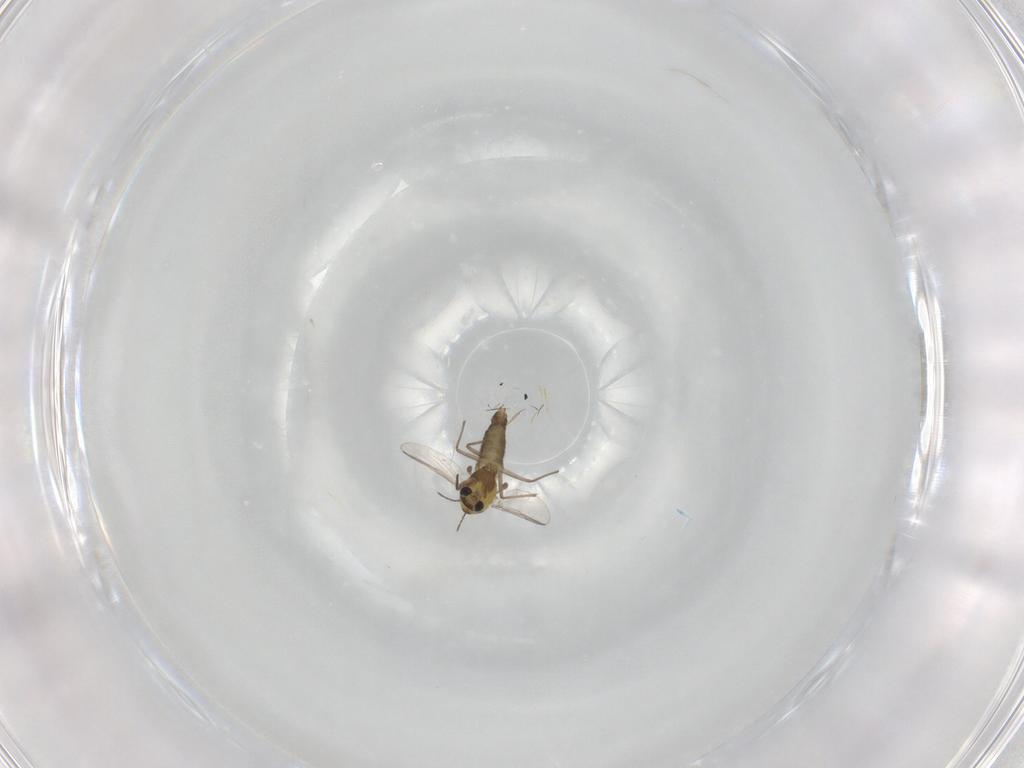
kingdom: Animalia
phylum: Arthropoda
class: Insecta
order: Diptera
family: Chironomidae
